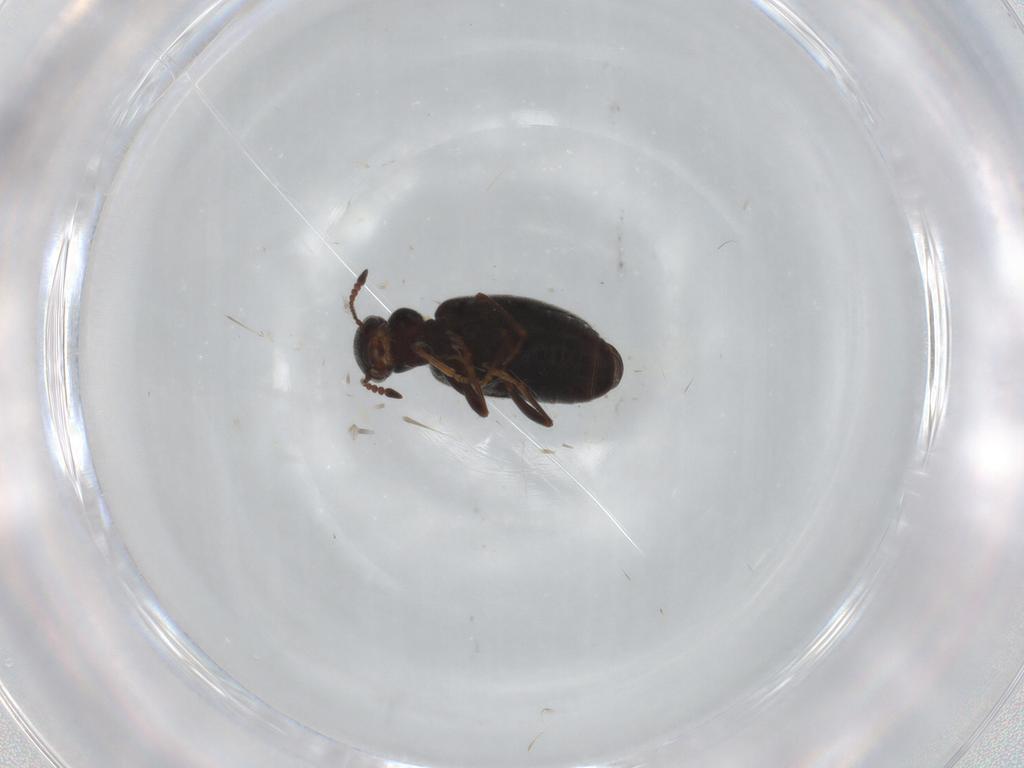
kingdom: Animalia
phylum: Arthropoda
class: Insecta
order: Coleoptera
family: Anthicidae
